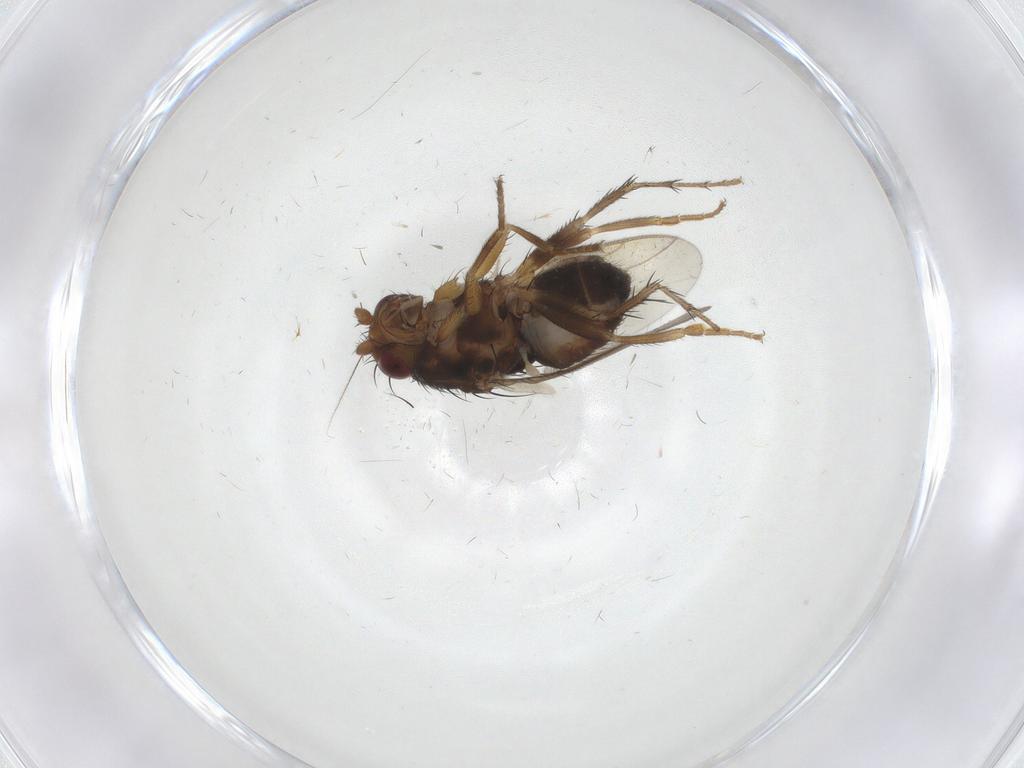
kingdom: Animalia
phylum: Arthropoda
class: Insecta
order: Diptera
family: Sphaeroceridae
